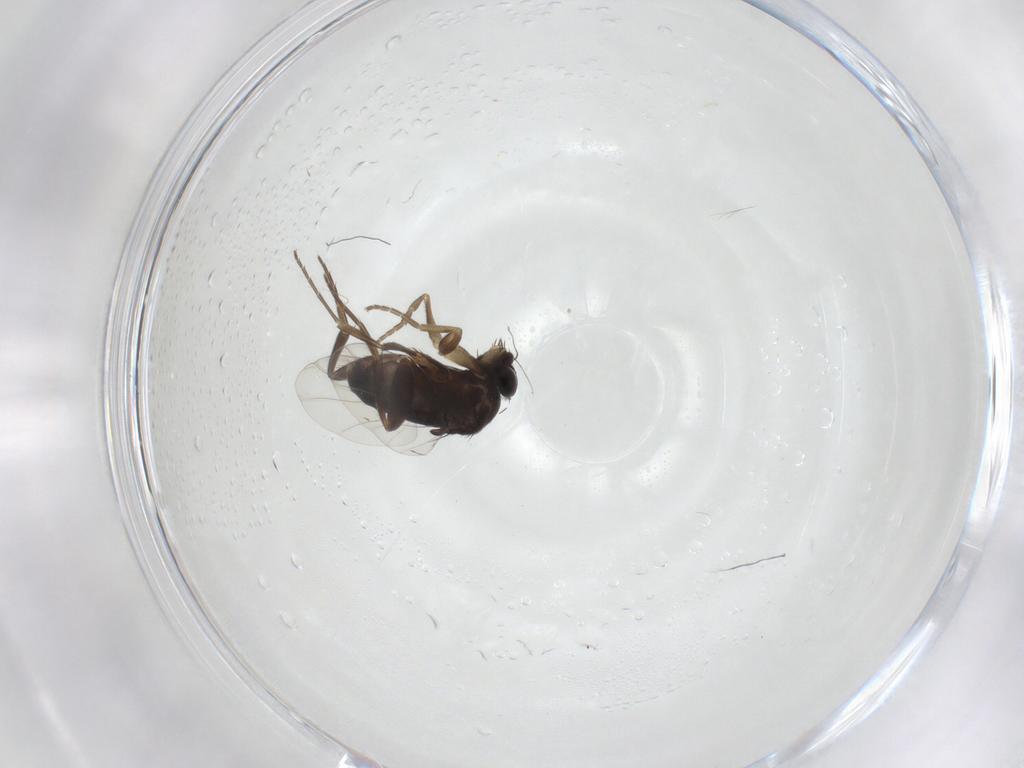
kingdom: Animalia
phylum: Arthropoda
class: Insecta
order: Diptera
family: Phoridae
